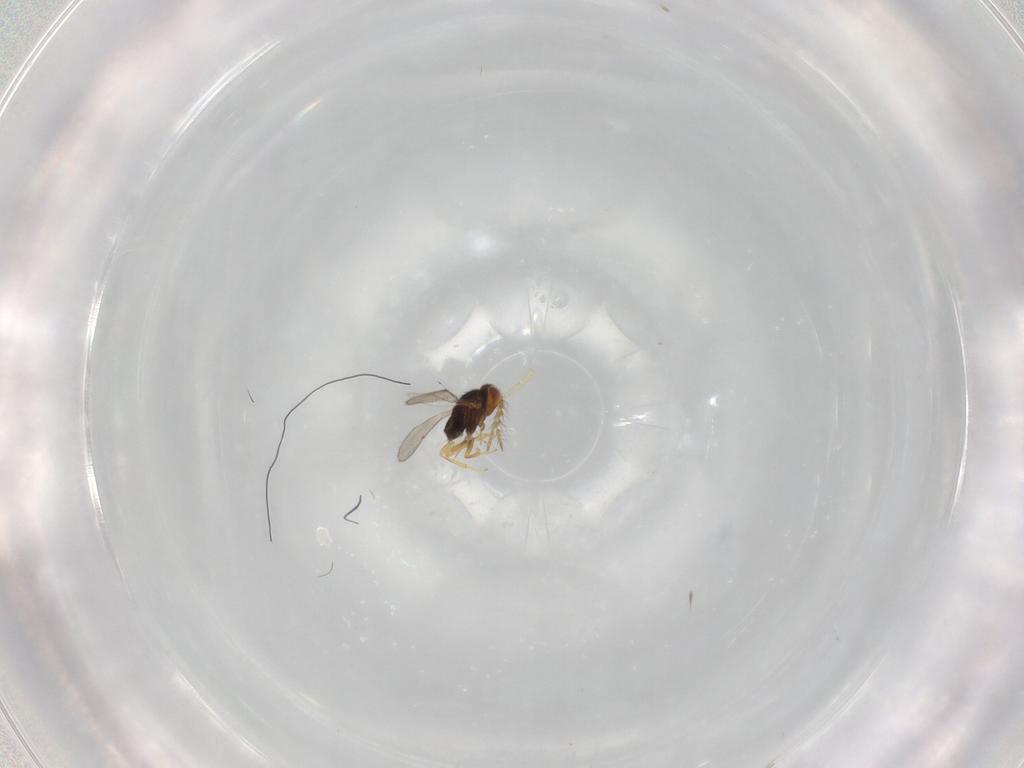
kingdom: Animalia
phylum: Arthropoda
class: Insecta
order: Hymenoptera
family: Encyrtidae
